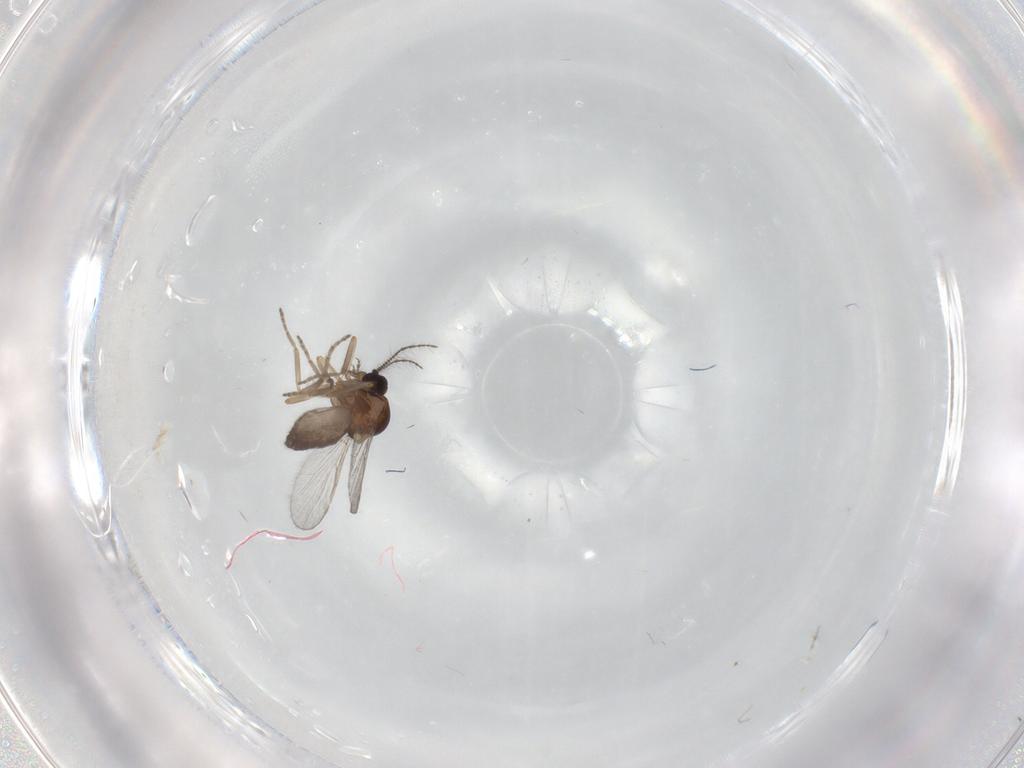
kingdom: Animalia
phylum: Arthropoda
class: Insecta
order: Diptera
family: Ceratopogonidae
